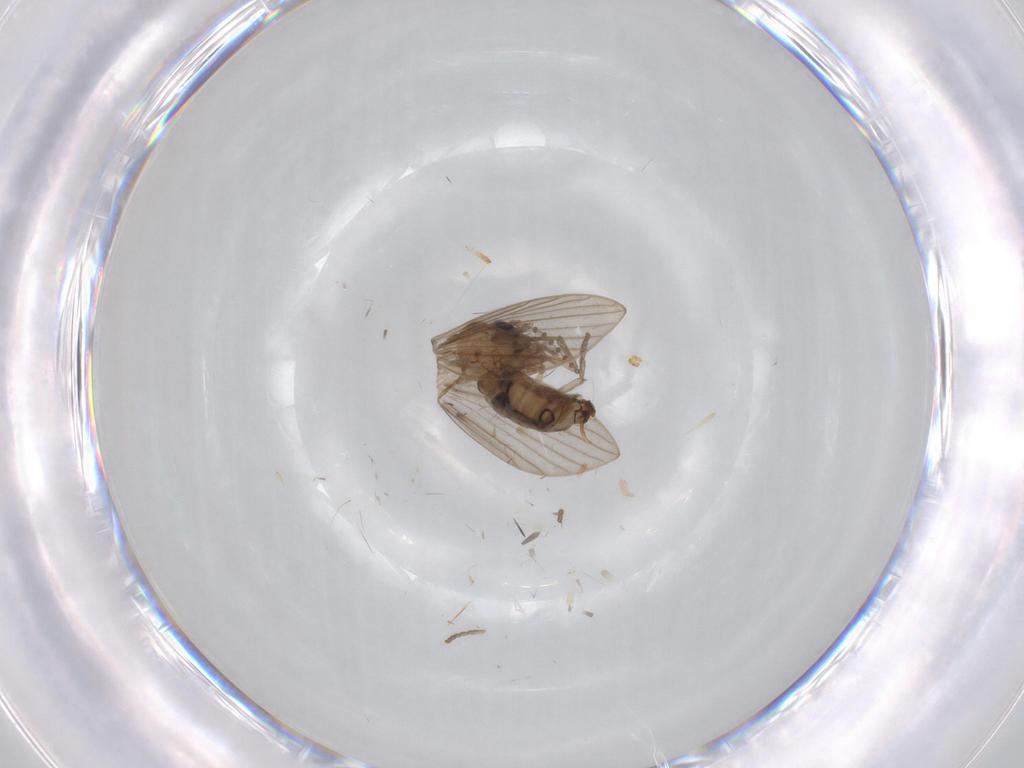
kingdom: Animalia
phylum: Arthropoda
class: Insecta
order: Diptera
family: Psychodidae
